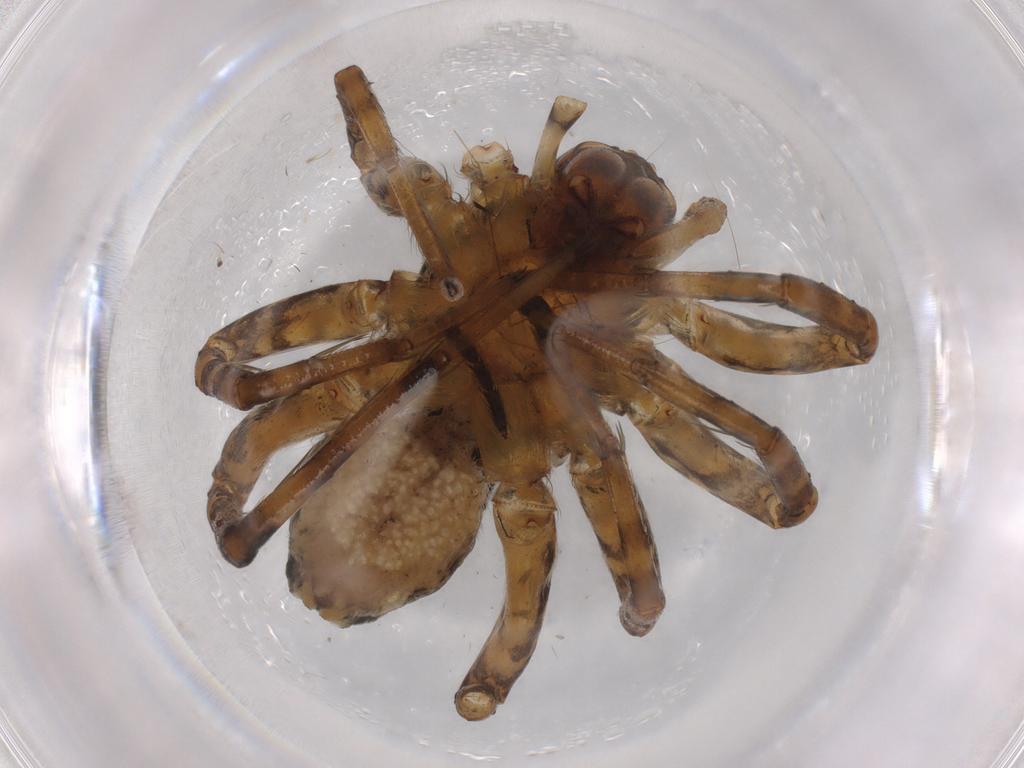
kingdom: Animalia
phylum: Arthropoda
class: Arachnida
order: Araneae
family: Lycosidae
